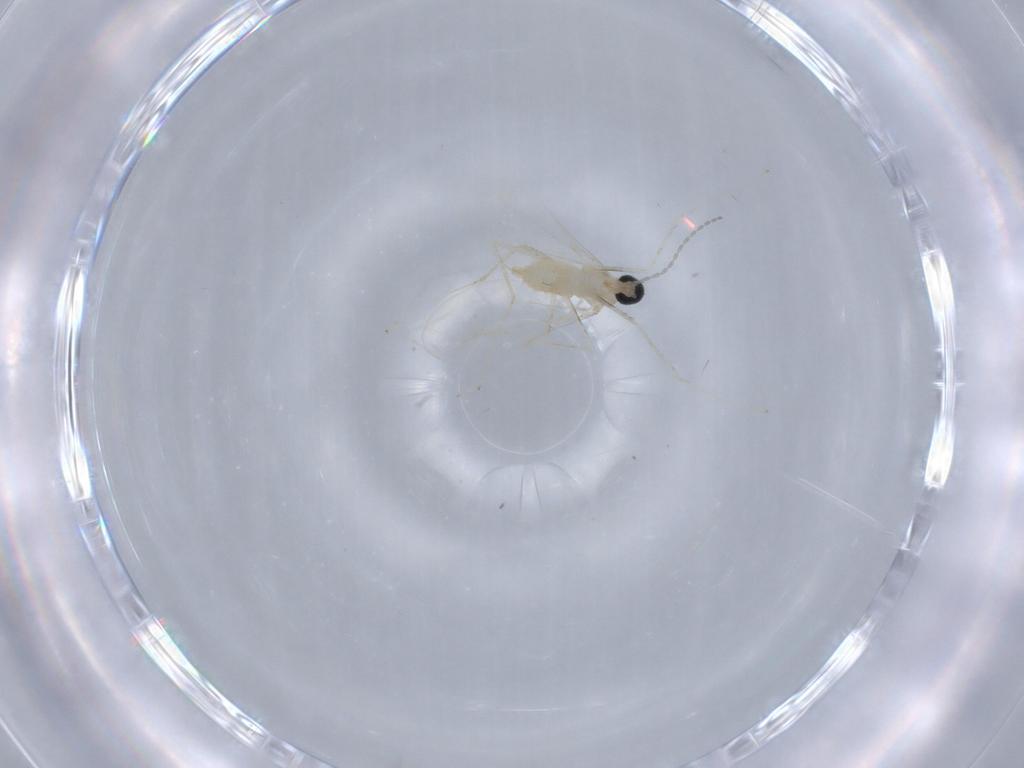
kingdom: Animalia
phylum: Arthropoda
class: Insecta
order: Diptera
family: Cecidomyiidae
